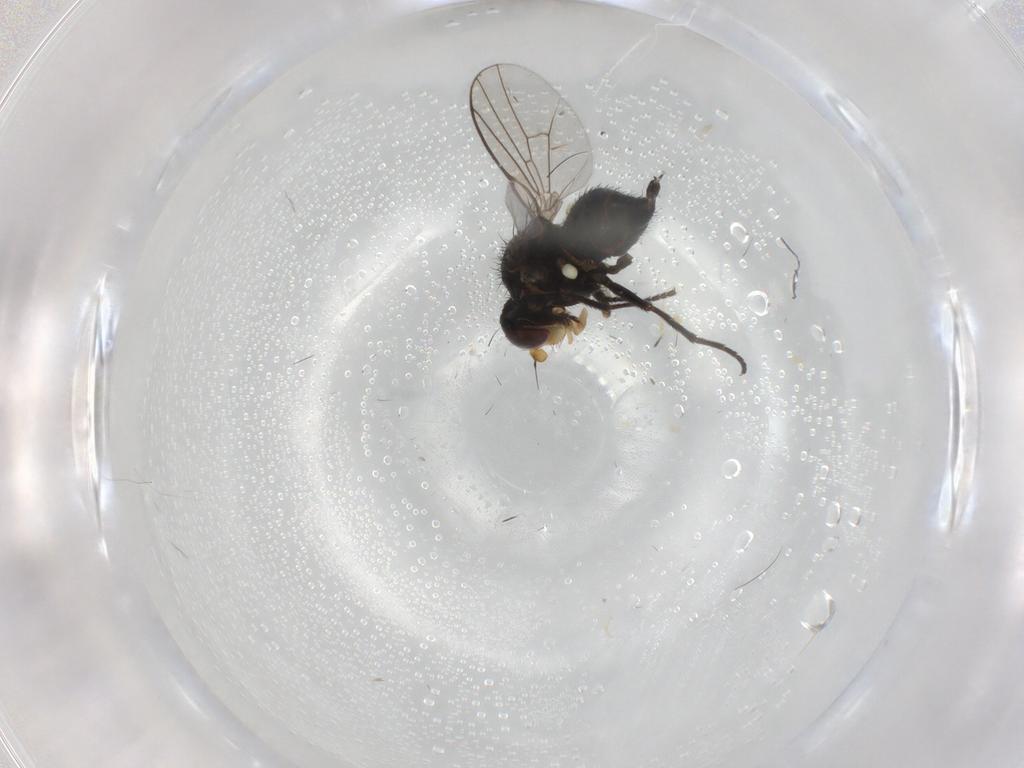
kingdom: Animalia
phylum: Arthropoda
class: Insecta
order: Diptera
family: Agromyzidae
